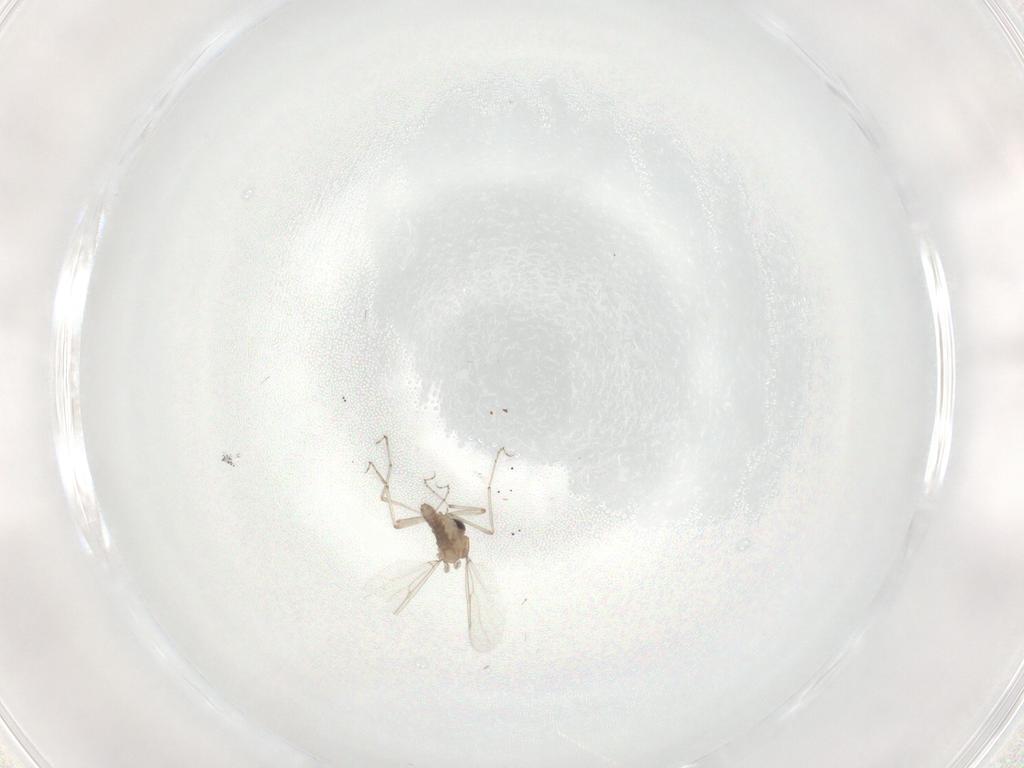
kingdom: Animalia
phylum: Arthropoda
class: Insecta
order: Diptera
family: Ceratopogonidae
